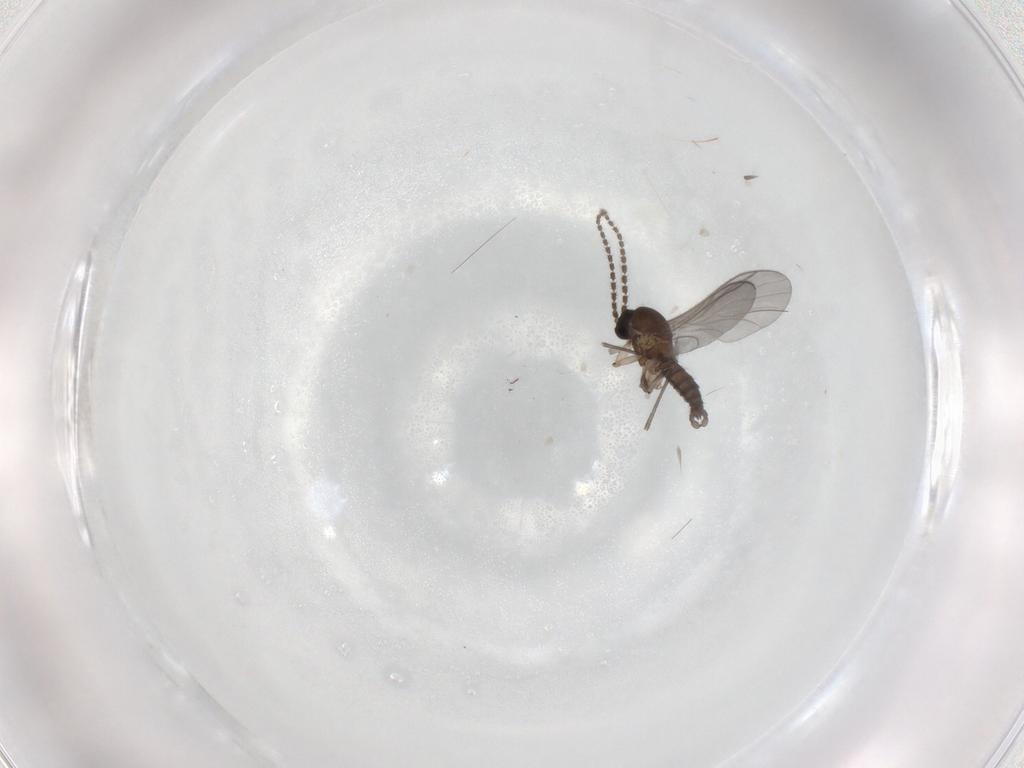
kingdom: Animalia
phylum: Arthropoda
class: Insecta
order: Diptera
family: Sciaridae
